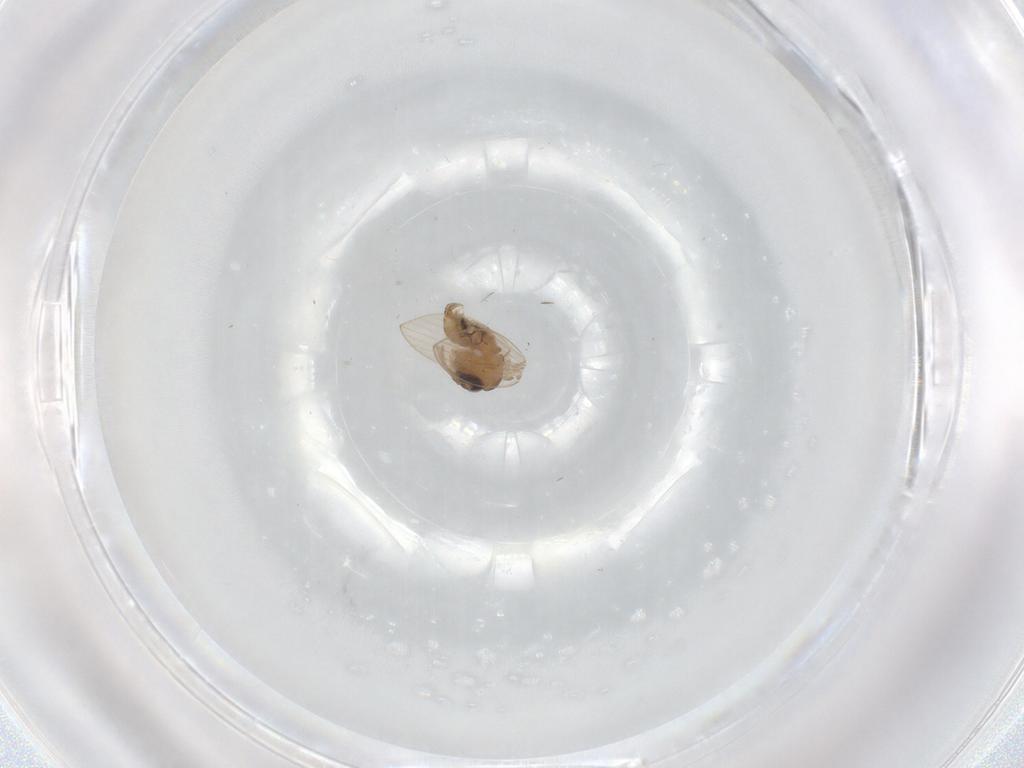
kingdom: Animalia
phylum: Arthropoda
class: Insecta
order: Diptera
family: Psychodidae
